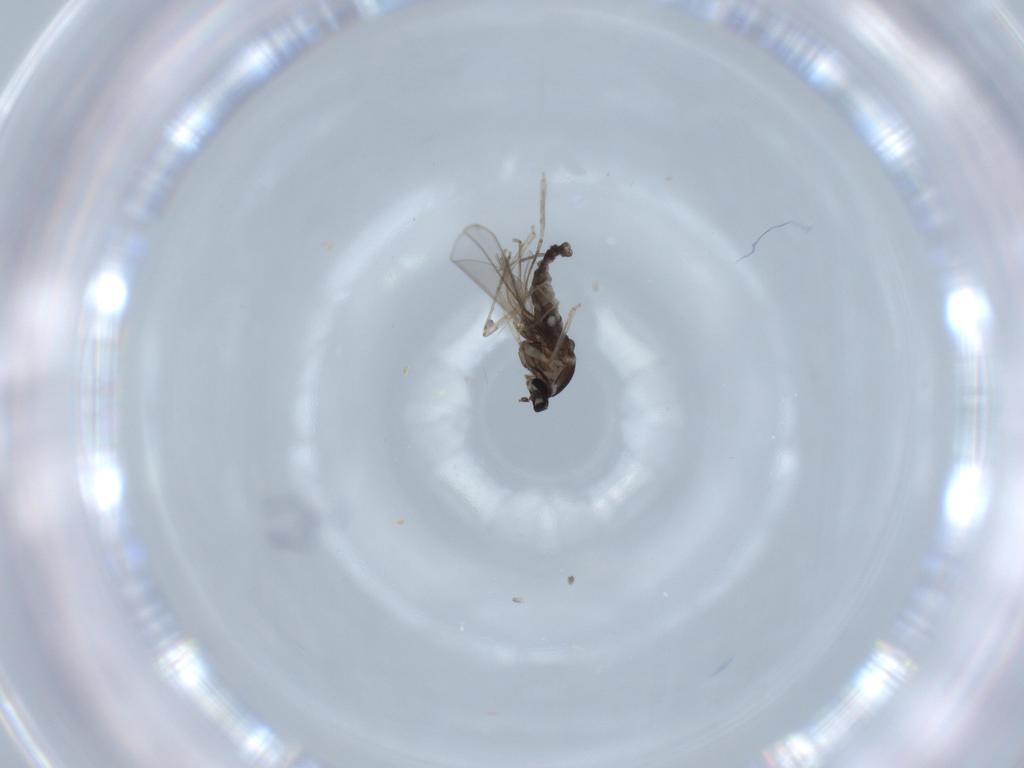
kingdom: Animalia
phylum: Arthropoda
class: Insecta
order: Diptera
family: Cecidomyiidae
